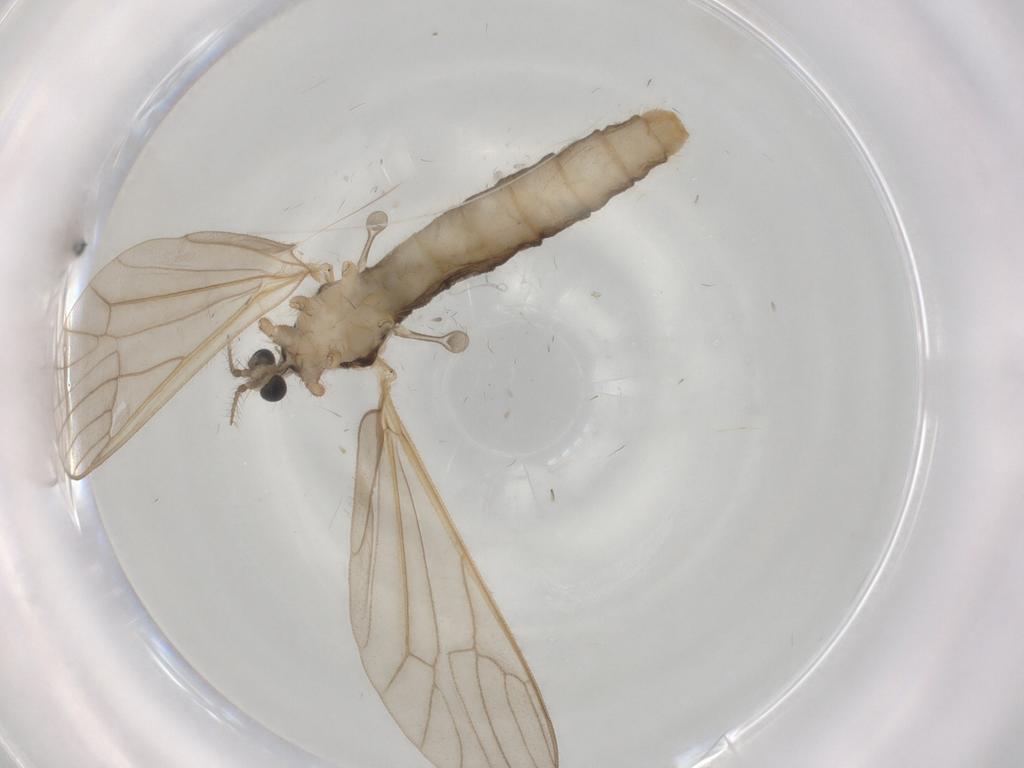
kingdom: Animalia
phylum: Arthropoda
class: Insecta
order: Diptera
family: Limoniidae
